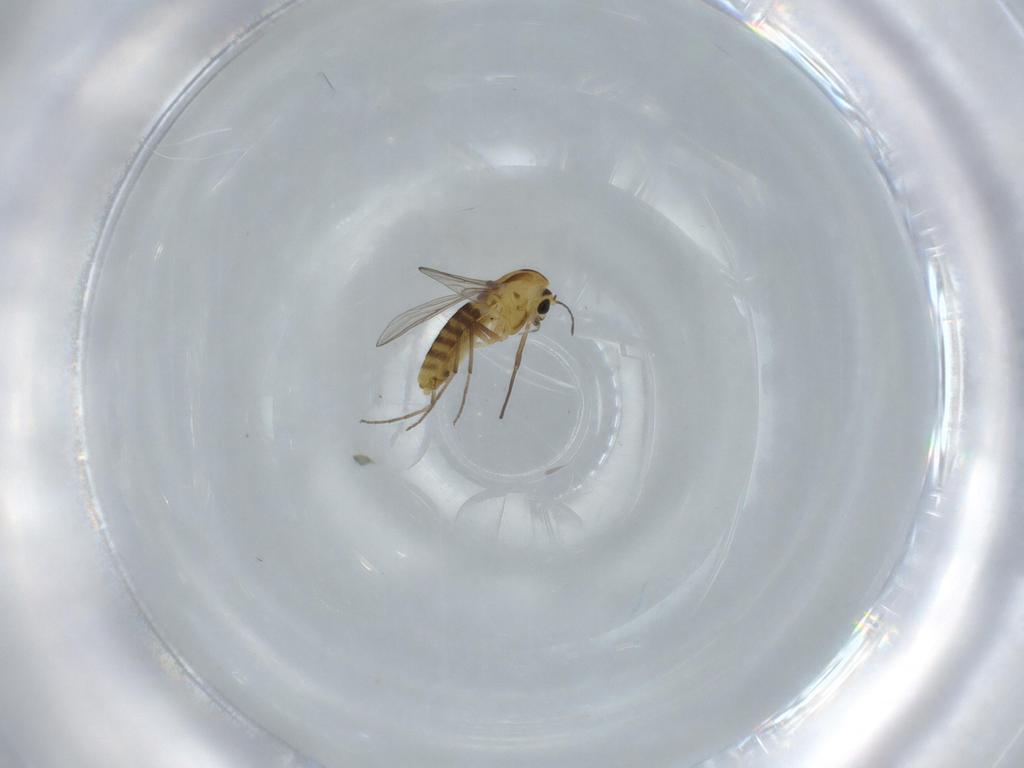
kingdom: Animalia
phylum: Arthropoda
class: Insecta
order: Diptera
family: Chironomidae
